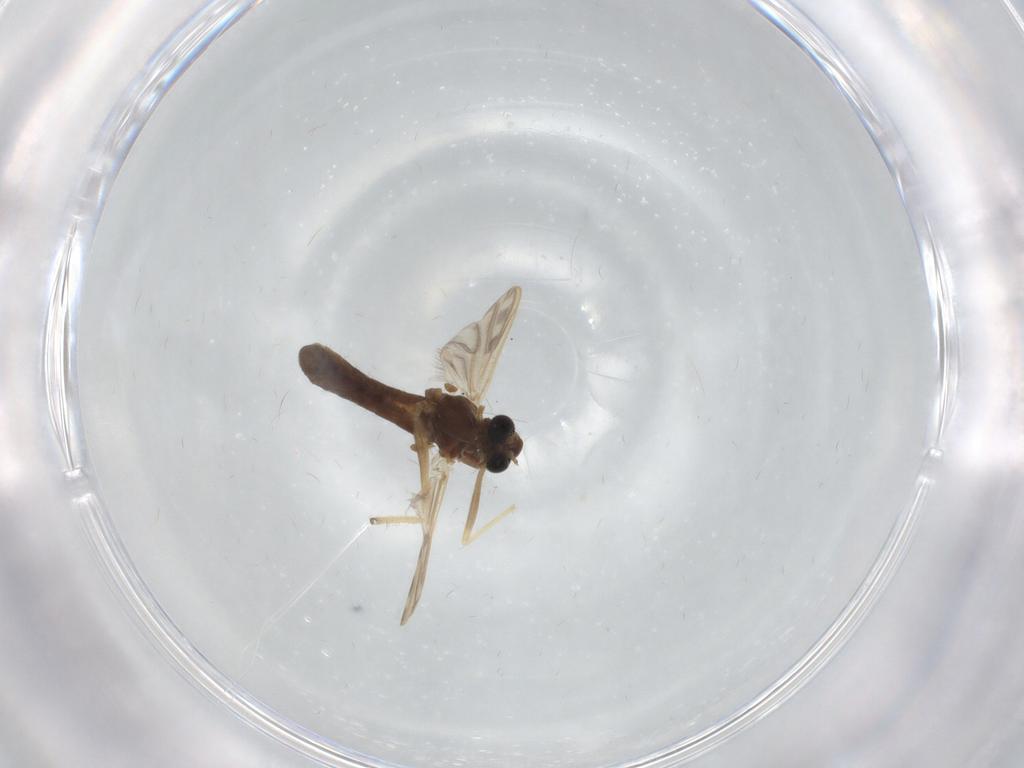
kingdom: Animalia
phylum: Arthropoda
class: Insecta
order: Diptera
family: Chironomidae
